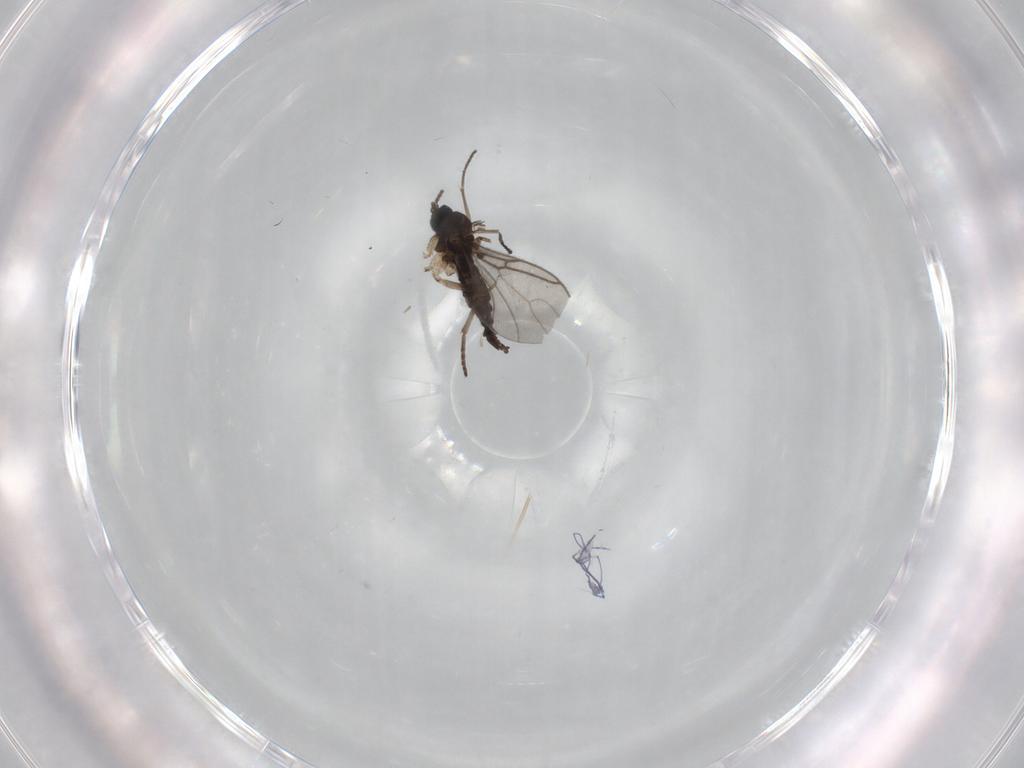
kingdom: Animalia
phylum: Arthropoda
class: Insecta
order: Diptera
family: Sciaridae
